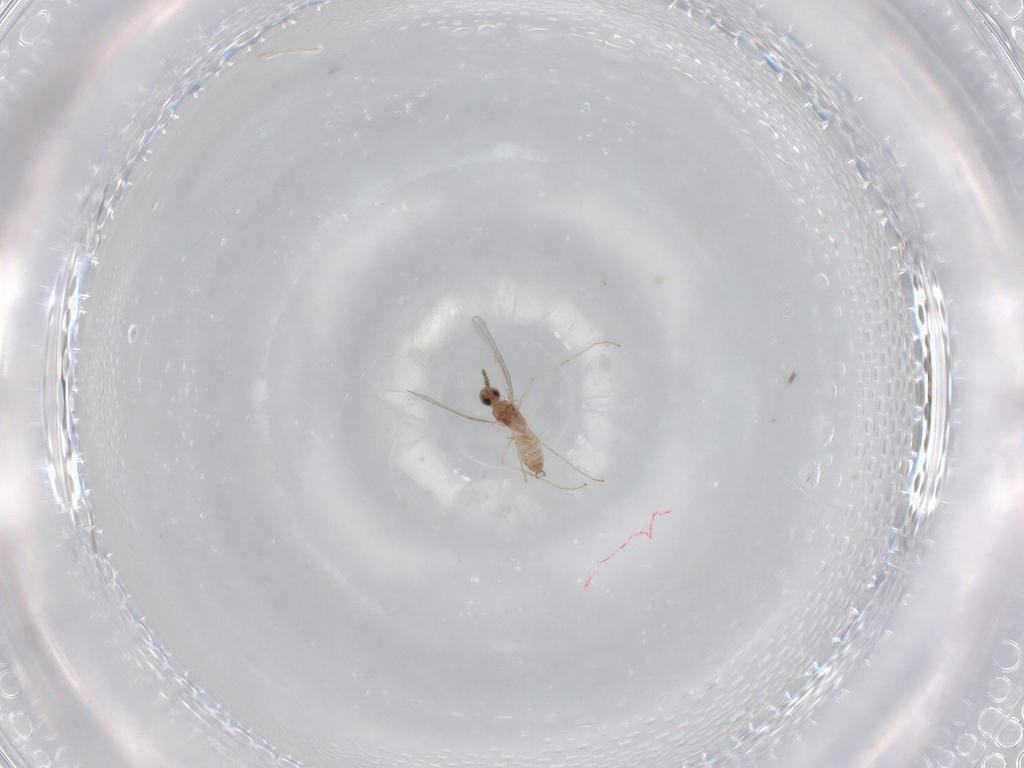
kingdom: Animalia
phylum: Arthropoda
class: Insecta
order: Diptera
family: Cecidomyiidae
